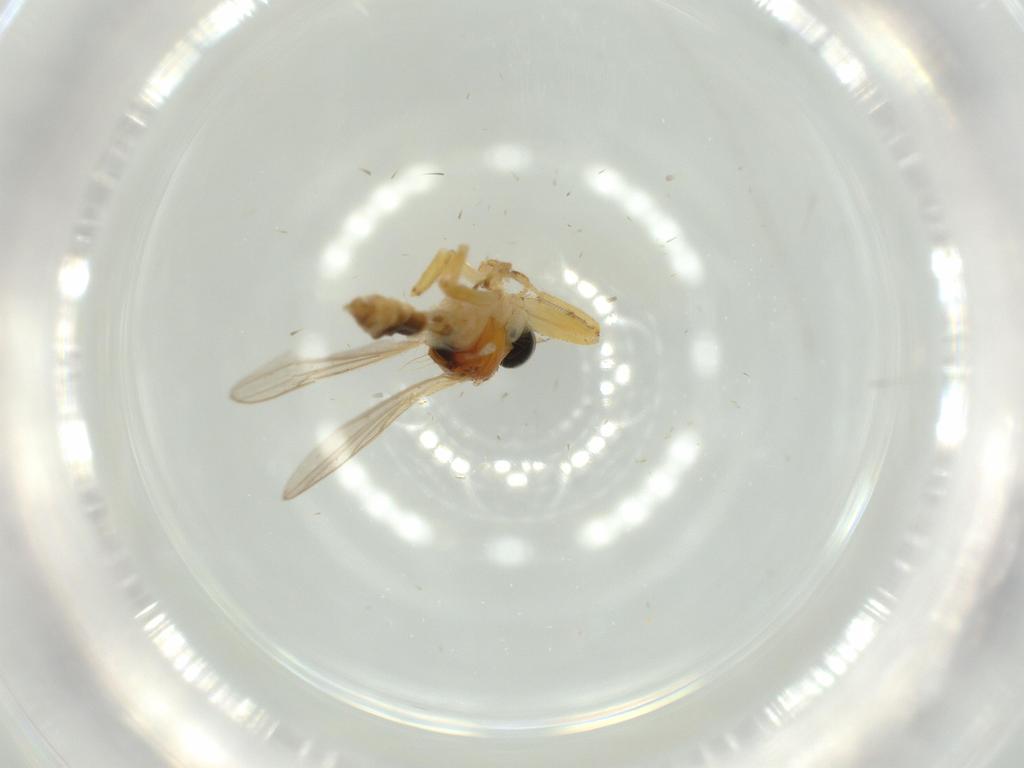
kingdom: Animalia
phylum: Arthropoda
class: Insecta
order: Diptera
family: Hybotidae
